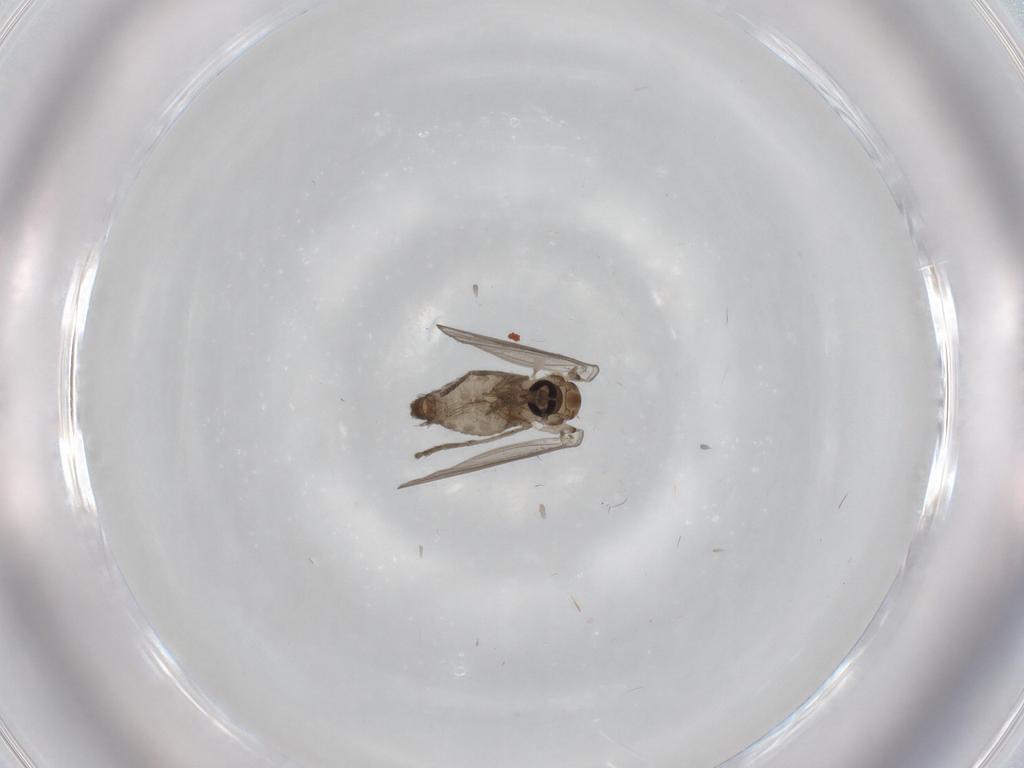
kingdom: Animalia
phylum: Arthropoda
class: Insecta
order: Diptera
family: Psychodidae
